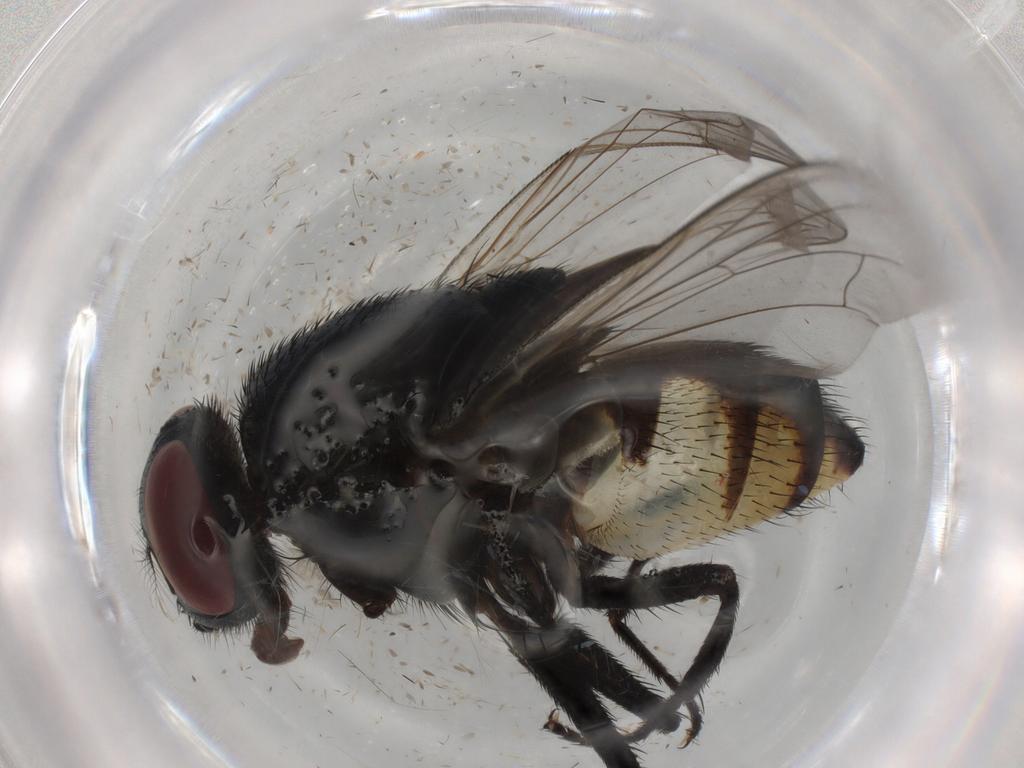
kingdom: Animalia
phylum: Arthropoda
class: Insecta
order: Diptera
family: Muscidae
